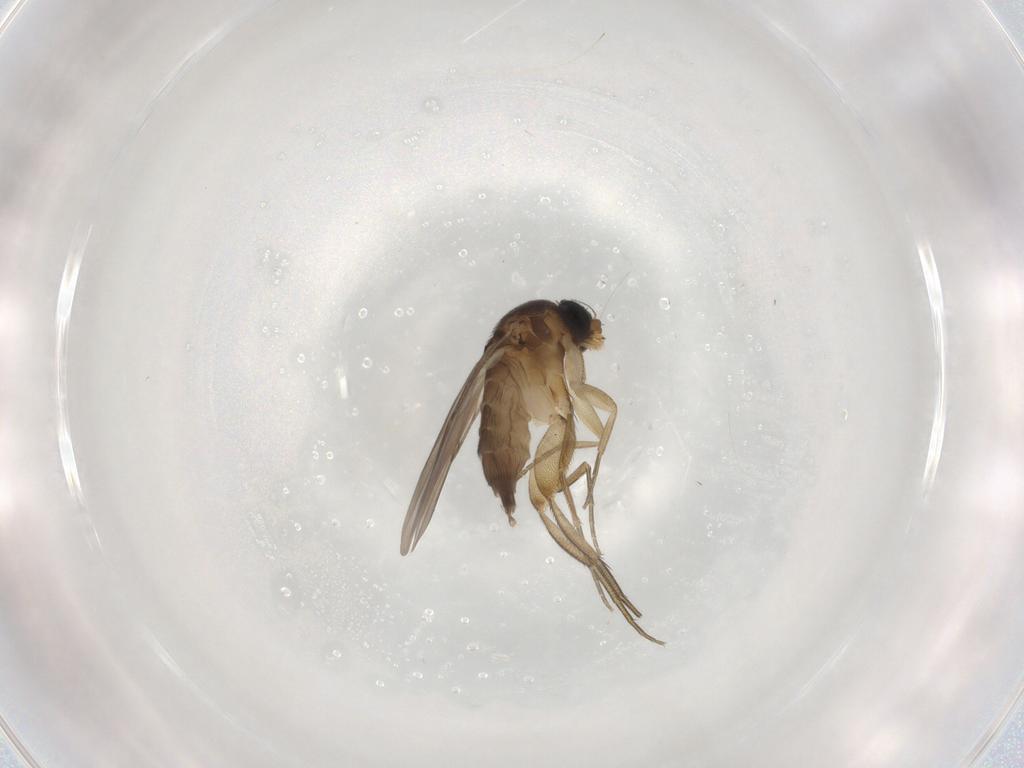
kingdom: Animalia
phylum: Arthropoda
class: Insecta
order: Diptera
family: Phoridae
